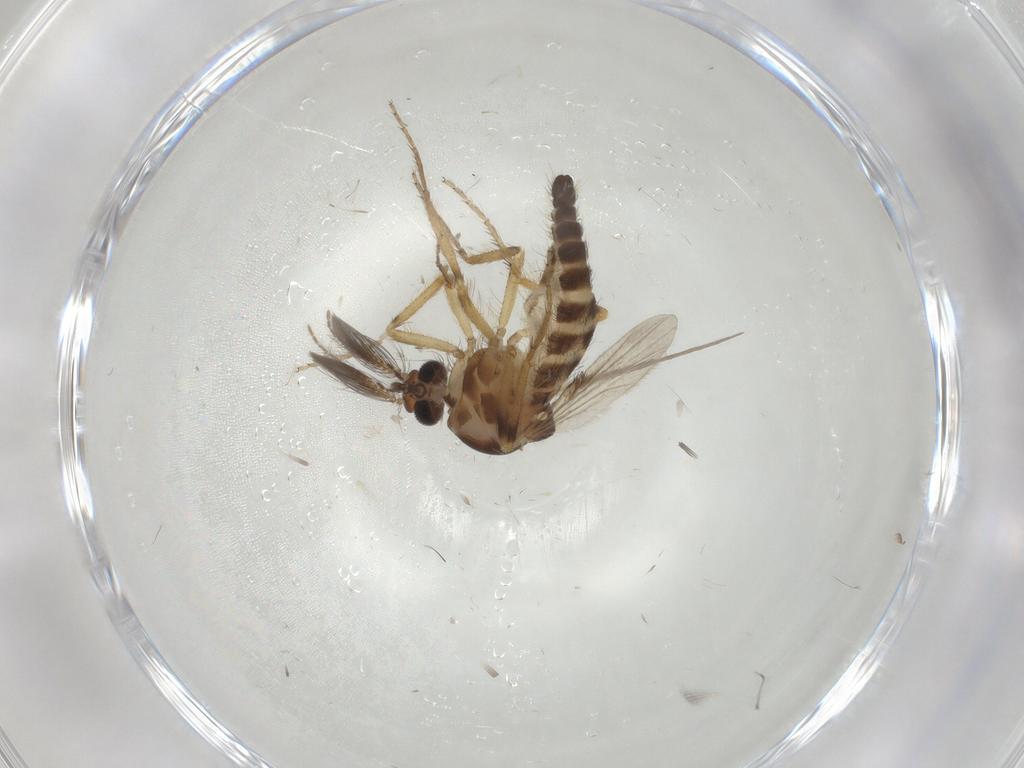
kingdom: Animalia
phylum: Arthropoda
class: Insecta
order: Diptera
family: Ceratopogonidae
